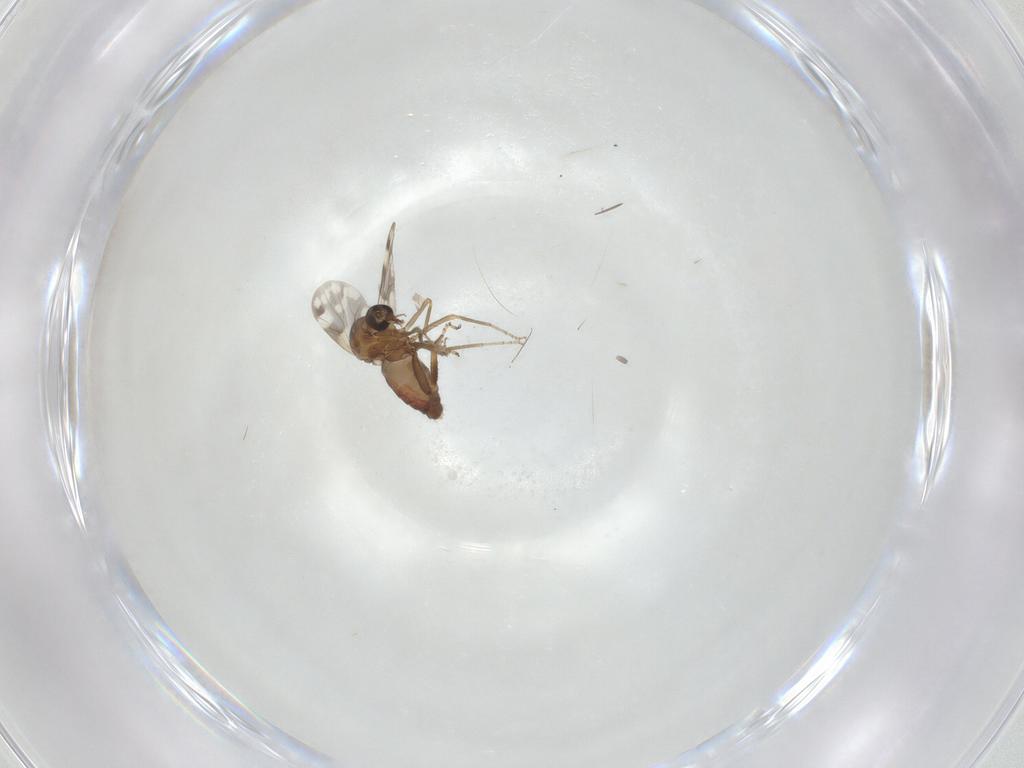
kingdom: Animalia
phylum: Arthropoda
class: Insecta
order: Diptera
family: Ceratopogonidae
